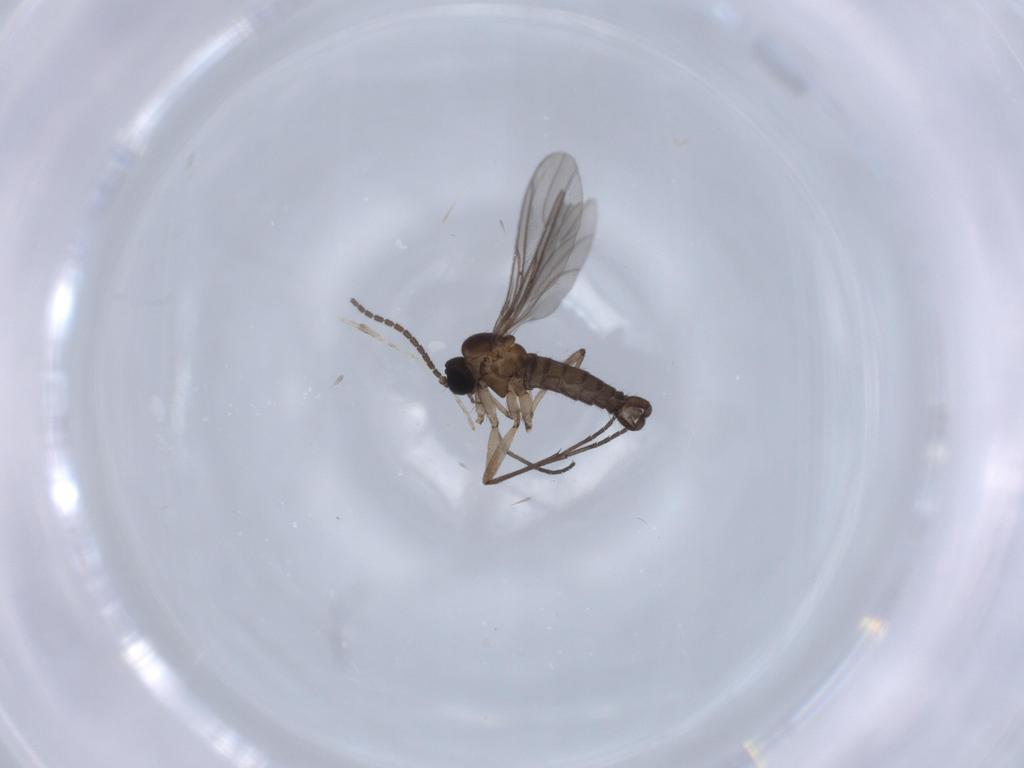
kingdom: Animalia
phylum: Arthropoda
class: Insecta
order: Diptera
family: Cecidomyiidae
